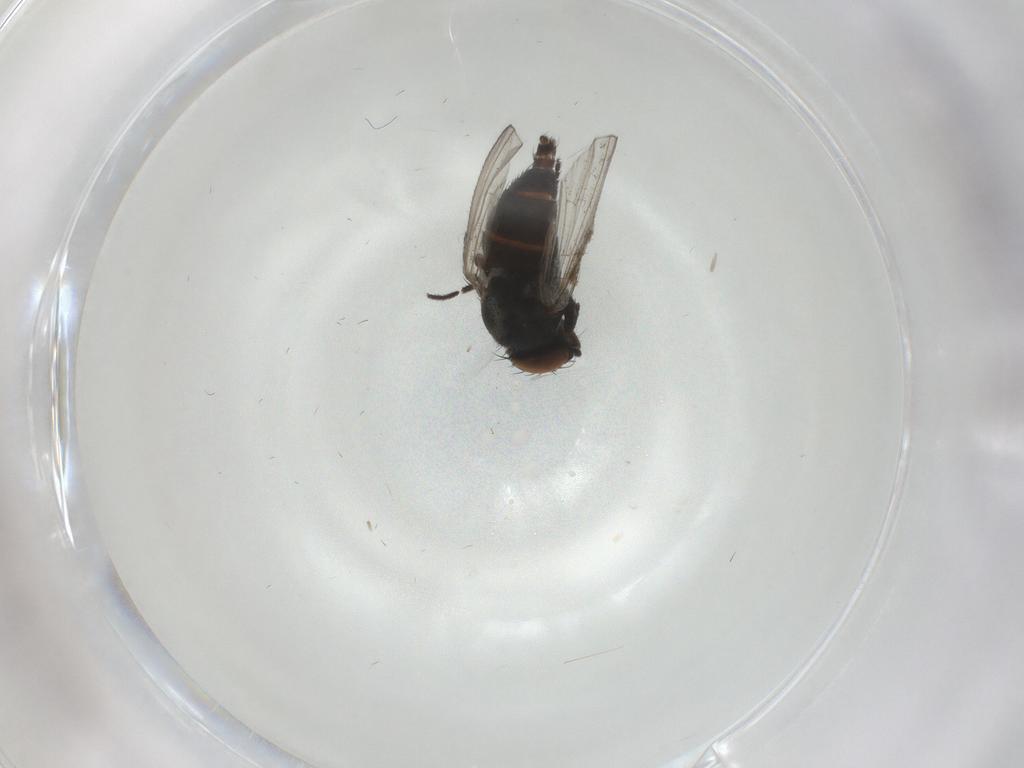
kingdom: Animalia
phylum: Arthropoda
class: Insecta
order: Diptera
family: Milichiidae
